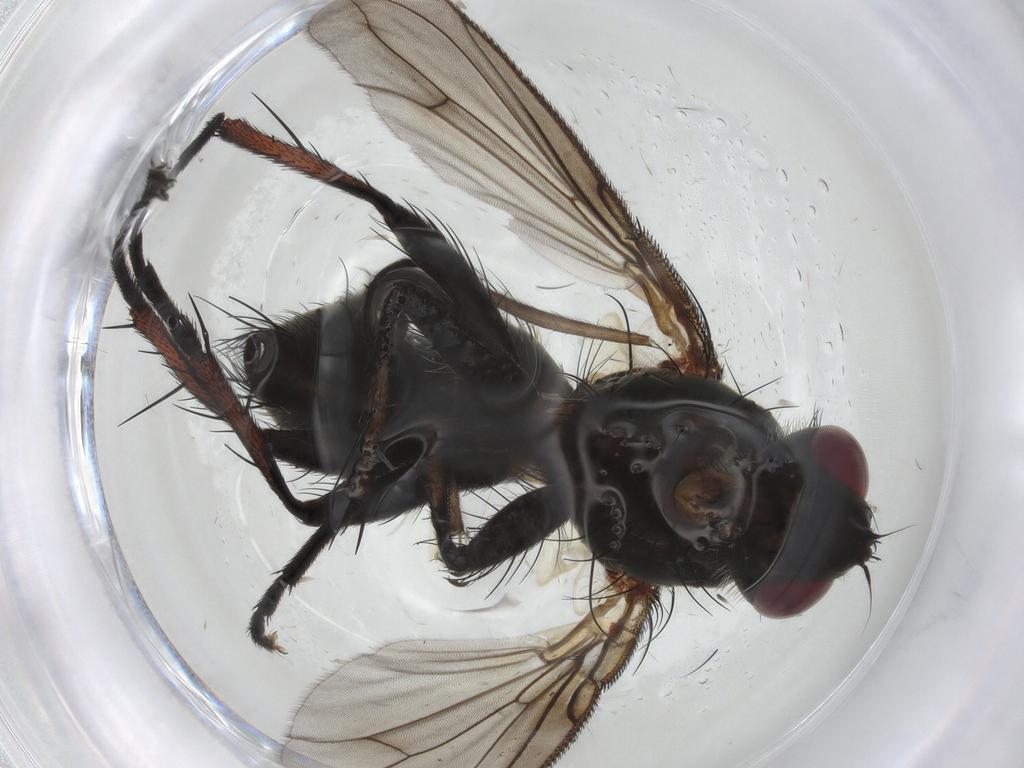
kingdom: Animalia
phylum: Arthropoda
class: Insecta
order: Diptera
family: Tachinidae
